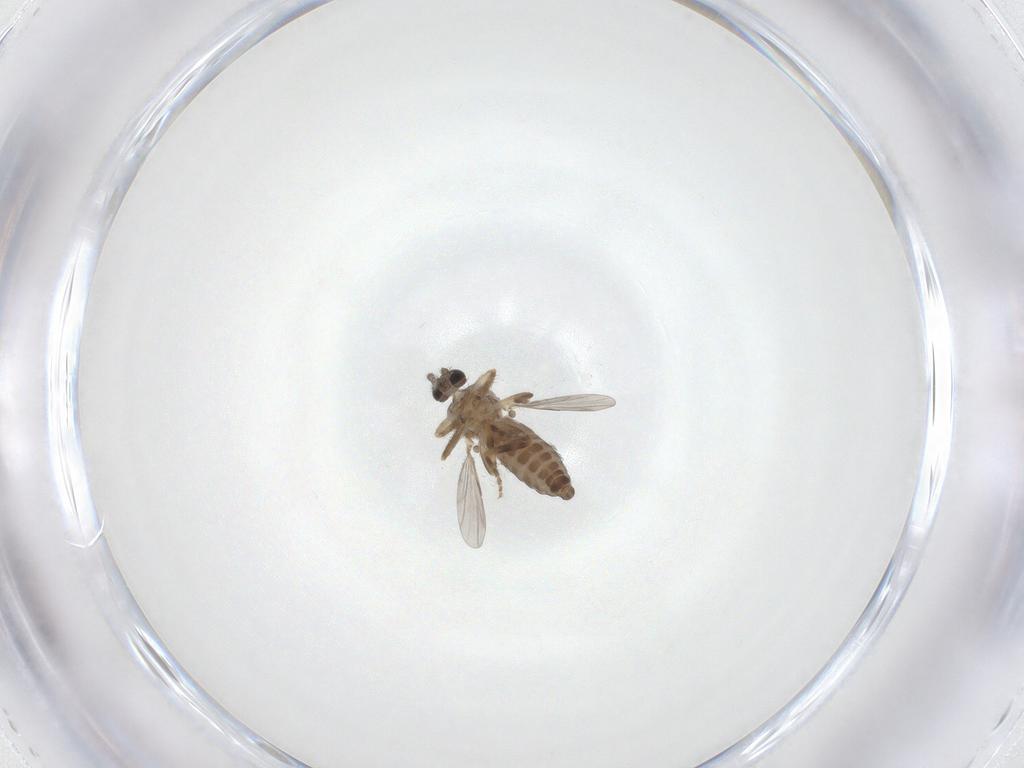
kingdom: Animalia
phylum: Arthropoda
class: Insecta
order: Diptera
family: Ceratopogonidae
